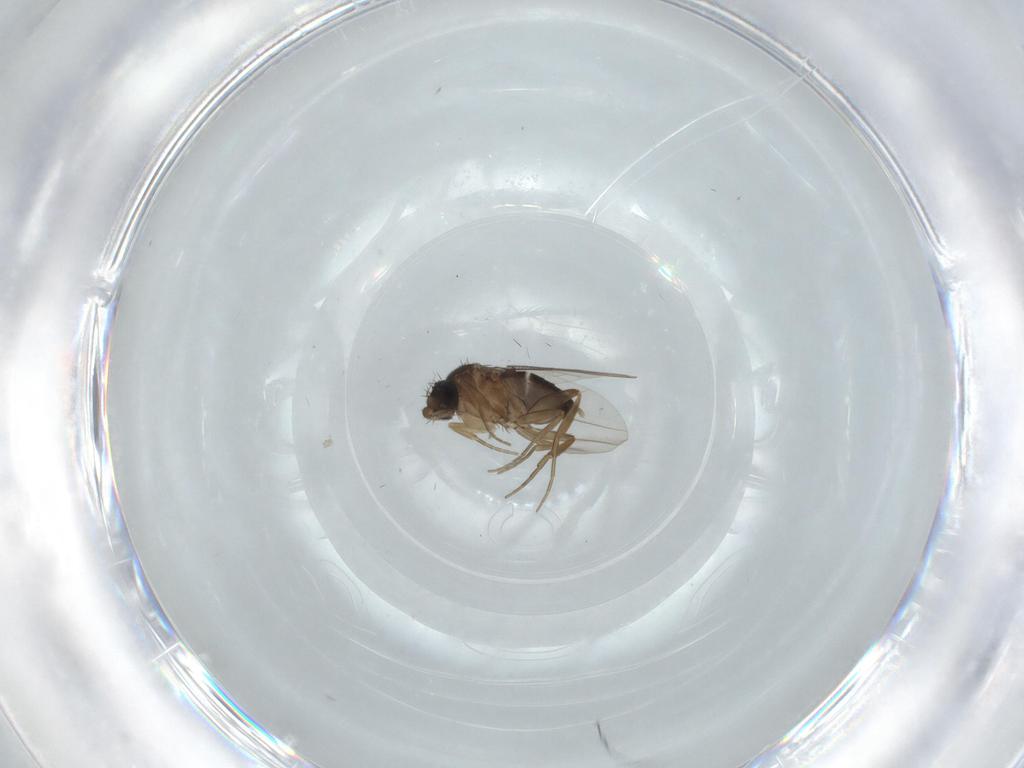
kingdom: Animalia
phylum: Arthropoda
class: Insecta
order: Diptera
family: Phoridae
